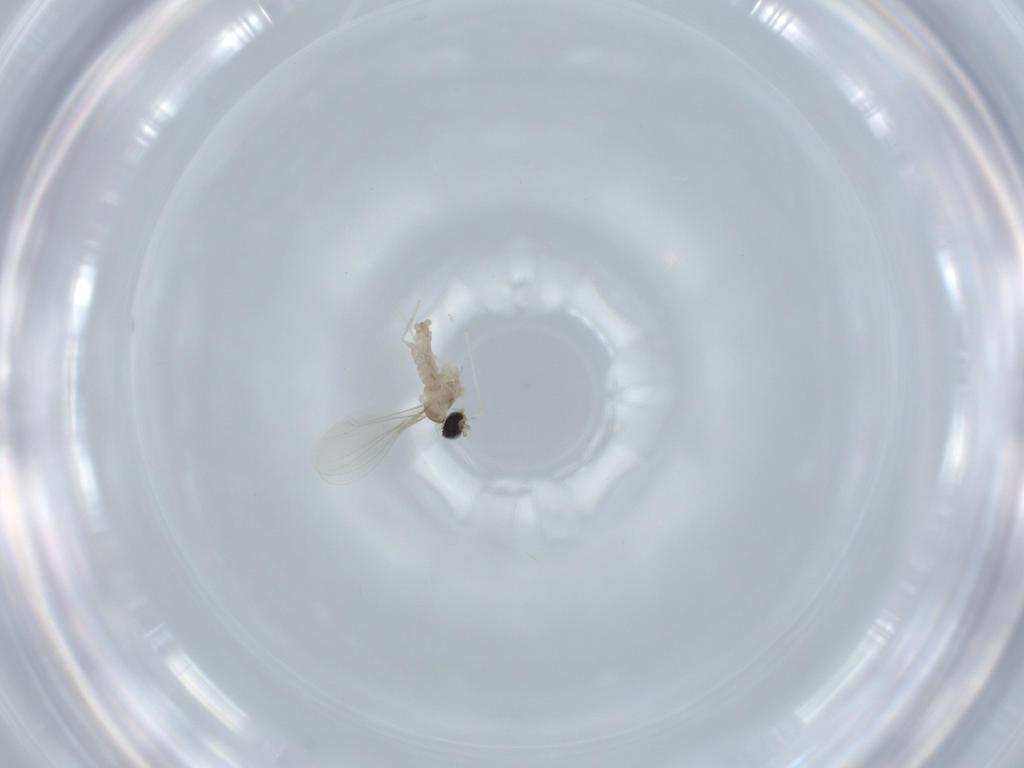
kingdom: Animalia
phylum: Arthropoda
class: Insecta
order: Diptera
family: Cecidomyiidae
